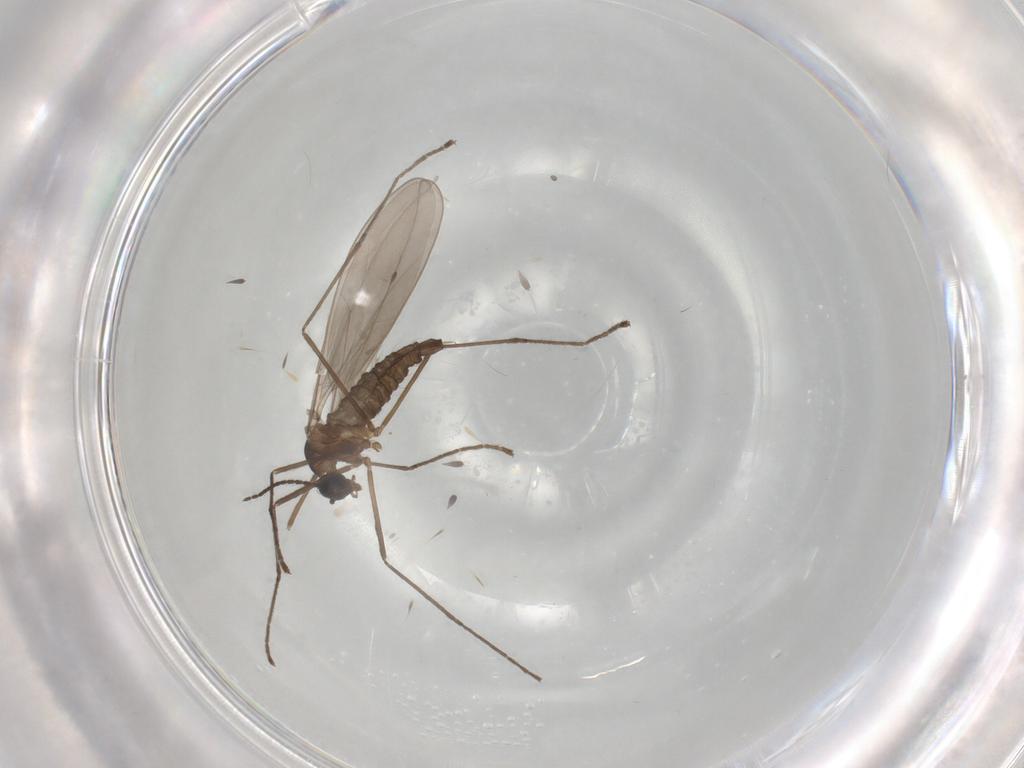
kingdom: Animalia
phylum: Arthropoda
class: Insecta
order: Diptera
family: Cecidomyiidae
